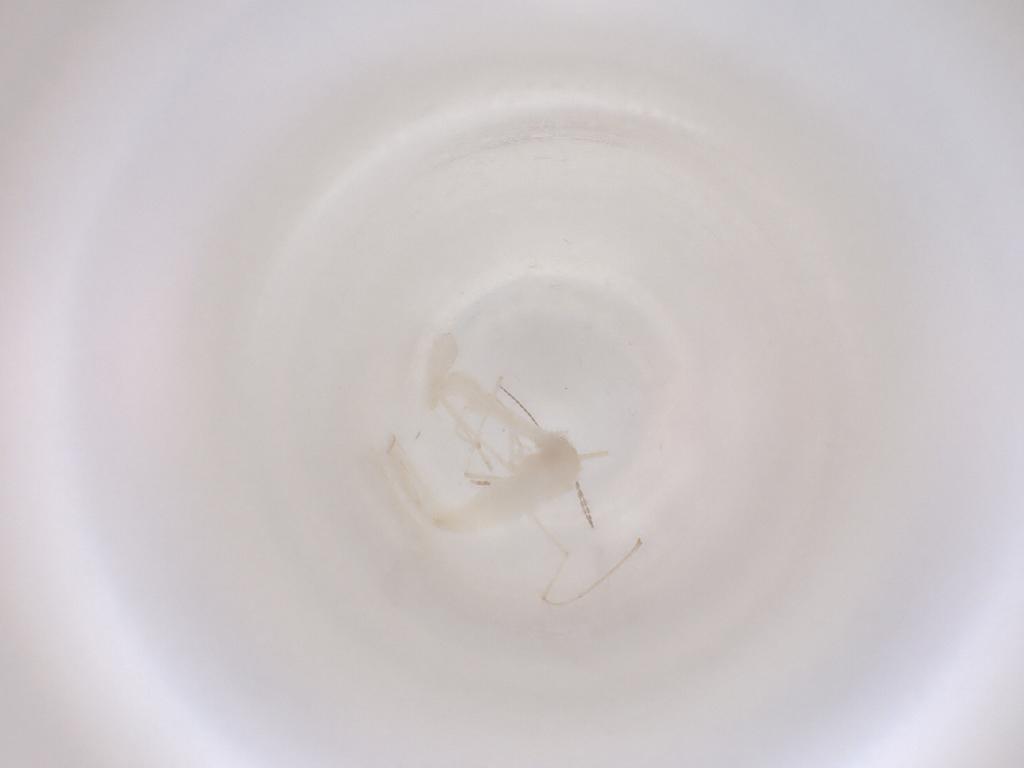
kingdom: Animalia
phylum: Arthropoda
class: Insecta
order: Diptera
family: Cecidomyiidae
